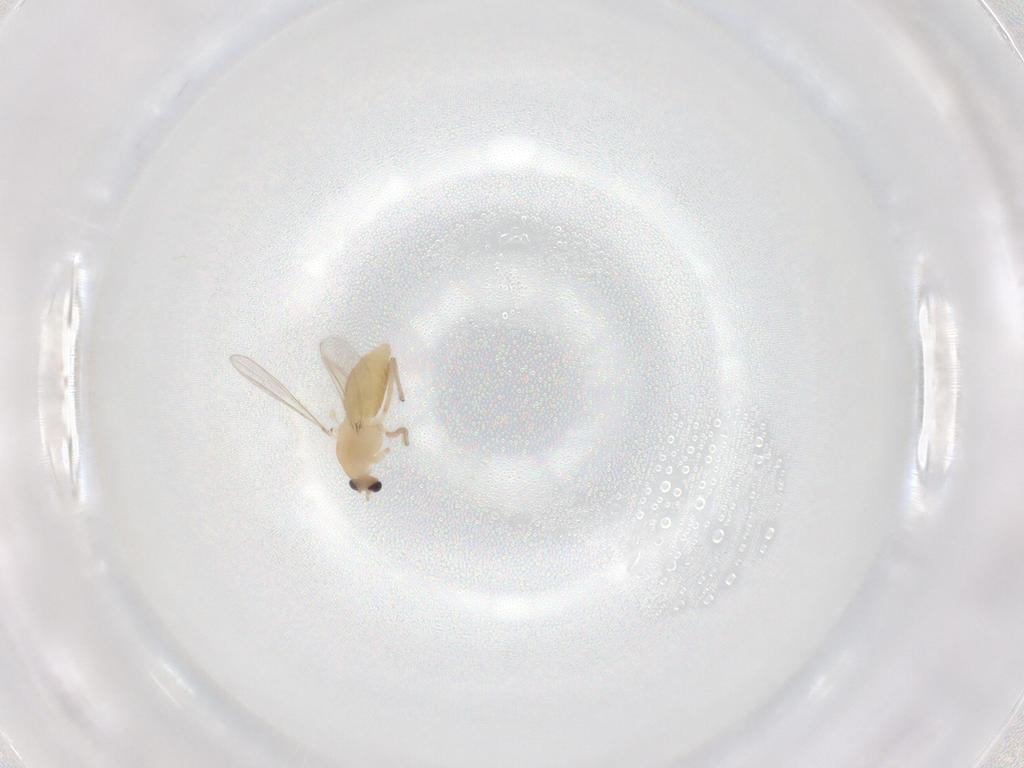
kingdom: Animalia
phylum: Arthropoda
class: Insecta
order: Diptera
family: Chironomidae
